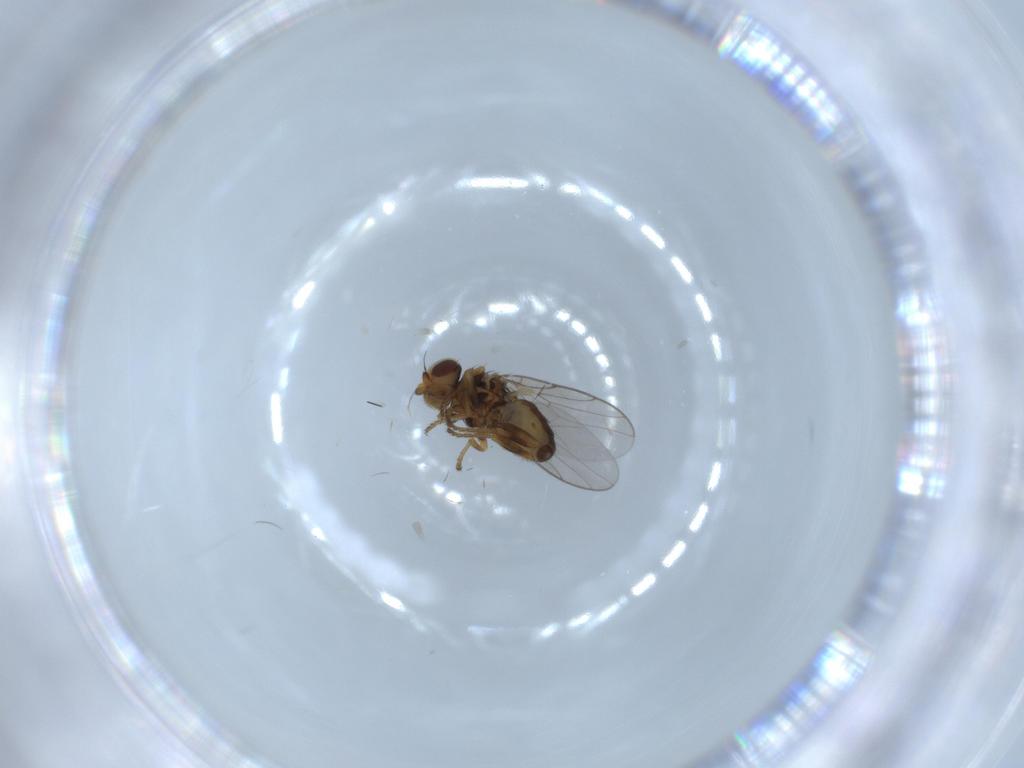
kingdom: Animalia
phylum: Arthropoda
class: Insecta
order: Diptera
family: Chloropidae
